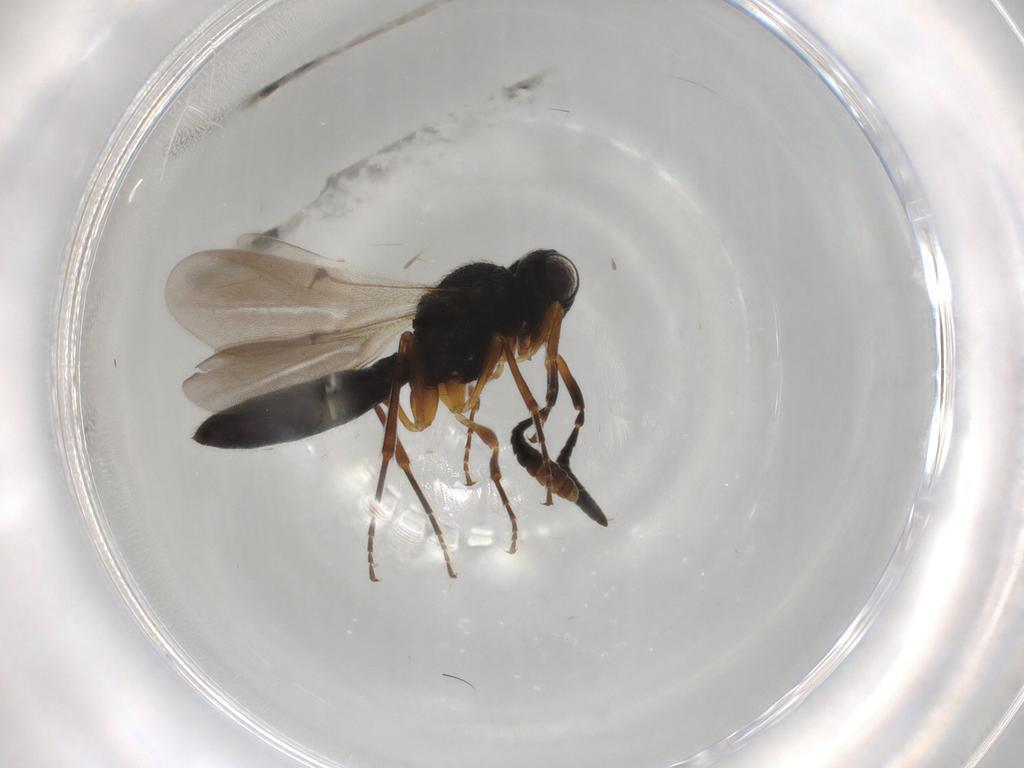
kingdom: Animalia
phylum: Arthropoda
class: Insecta
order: Hymenoptera
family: Scelionidae
